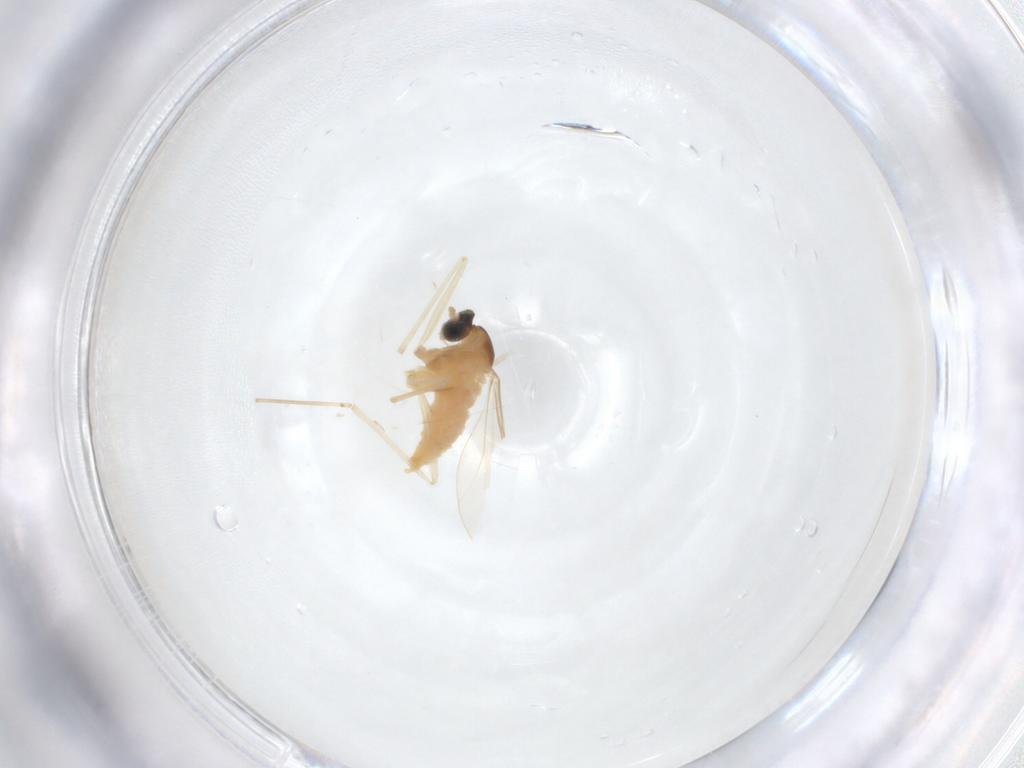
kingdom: Animalia
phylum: Arthropoda
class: Insecta
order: Diptera
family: Cecidomyiidae
